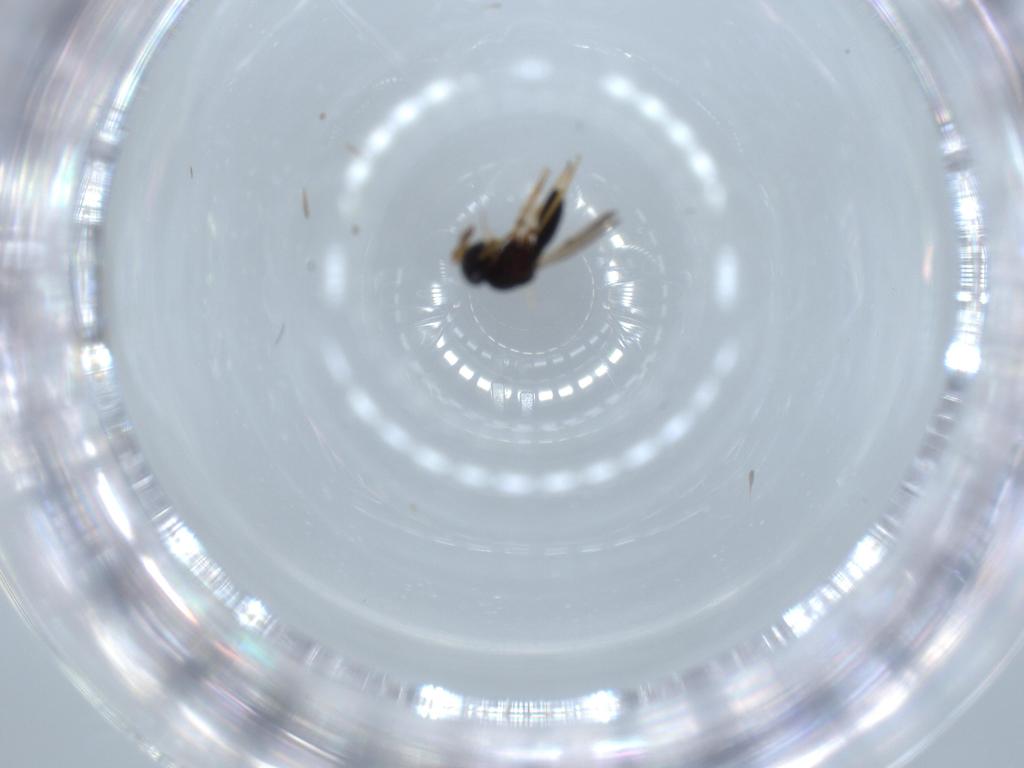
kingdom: Animalia
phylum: Arthropoda
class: Insecta
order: Hymenoptera
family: Scelionidae
